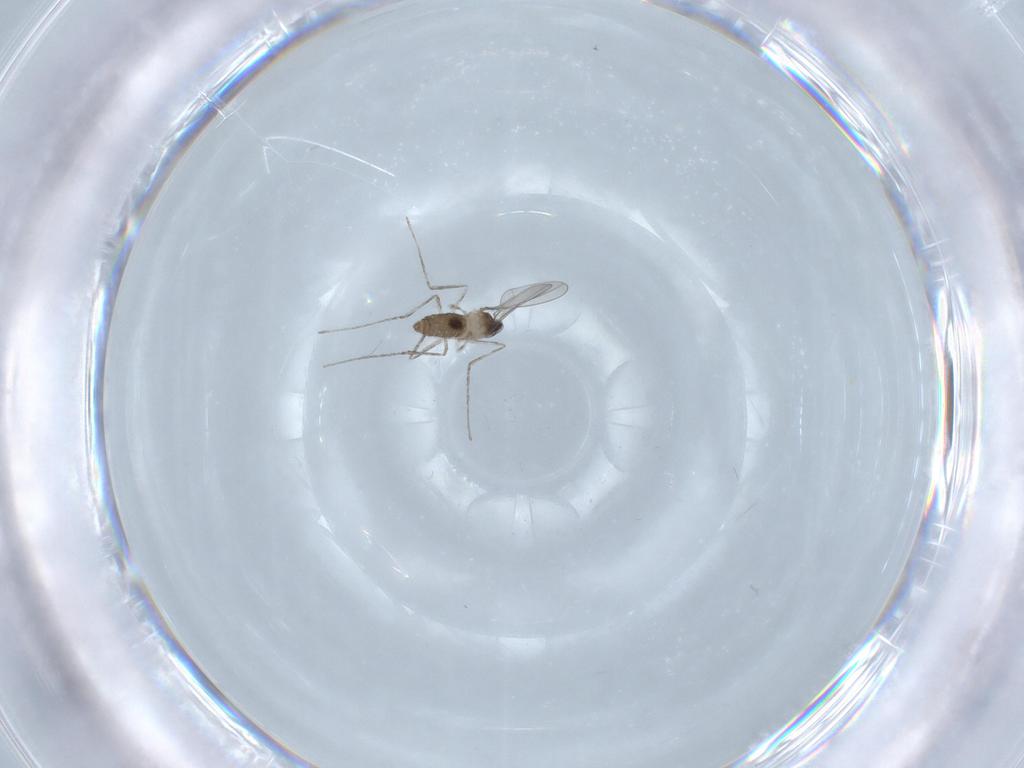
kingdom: Animalia
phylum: Arthropoda
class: Insecta
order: Diptera
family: Cecidomyiidae
